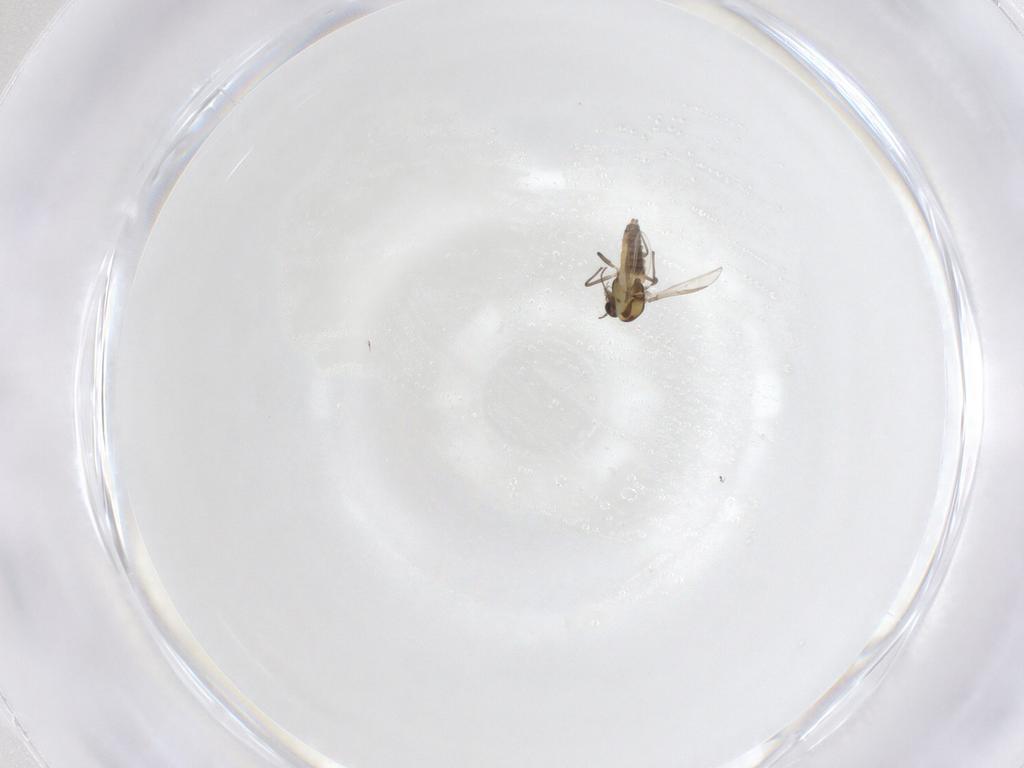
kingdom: Animalia
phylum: Arthropoda
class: Insecta
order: Diptera
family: Chironomidae
